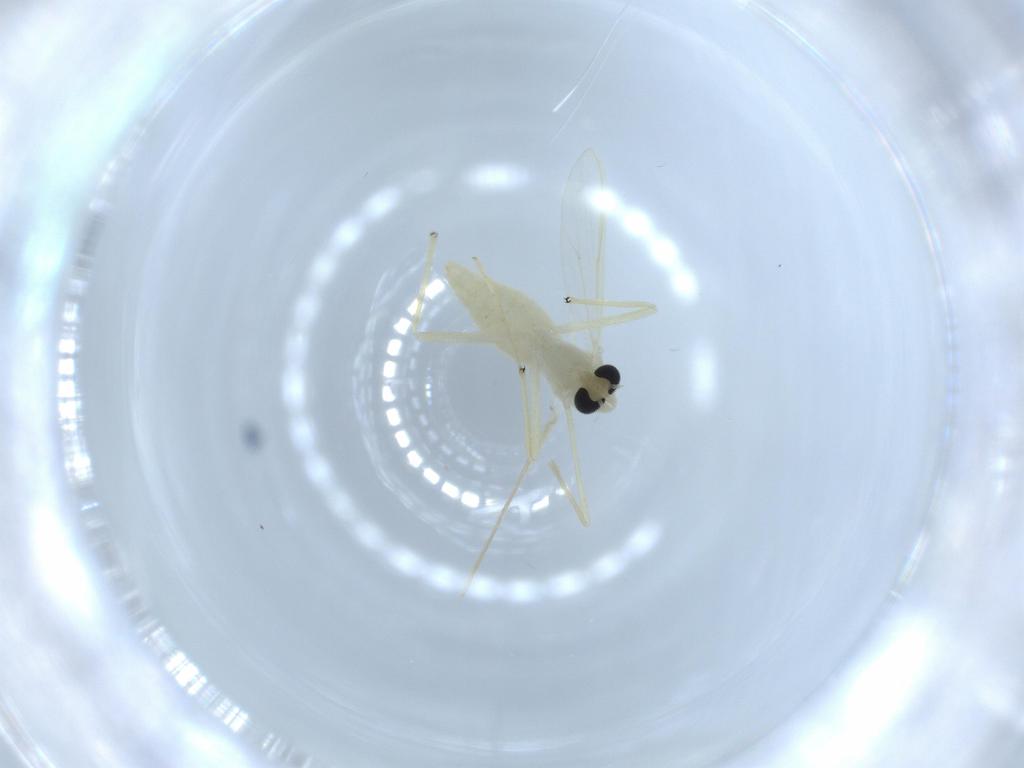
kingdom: Animalia
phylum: Arthropoda
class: Insecta
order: Diptera
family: Chironomidae
